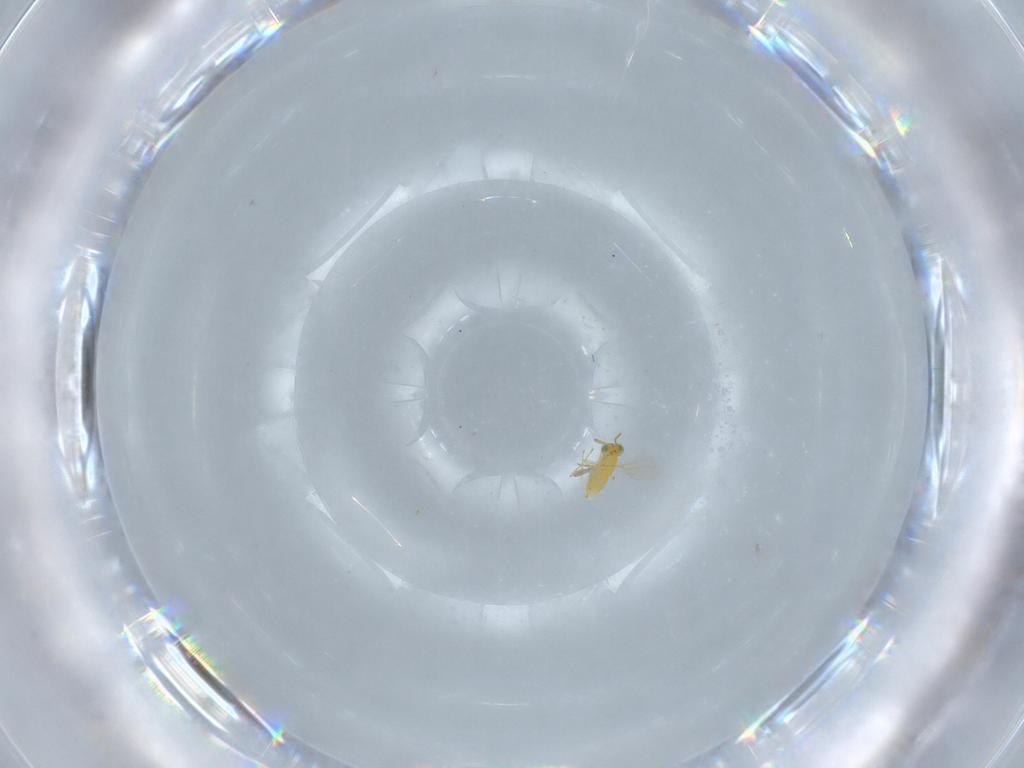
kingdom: Animalia
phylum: Arthropoda
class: Insecta
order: Hymenoptera
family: Aphelinidae
